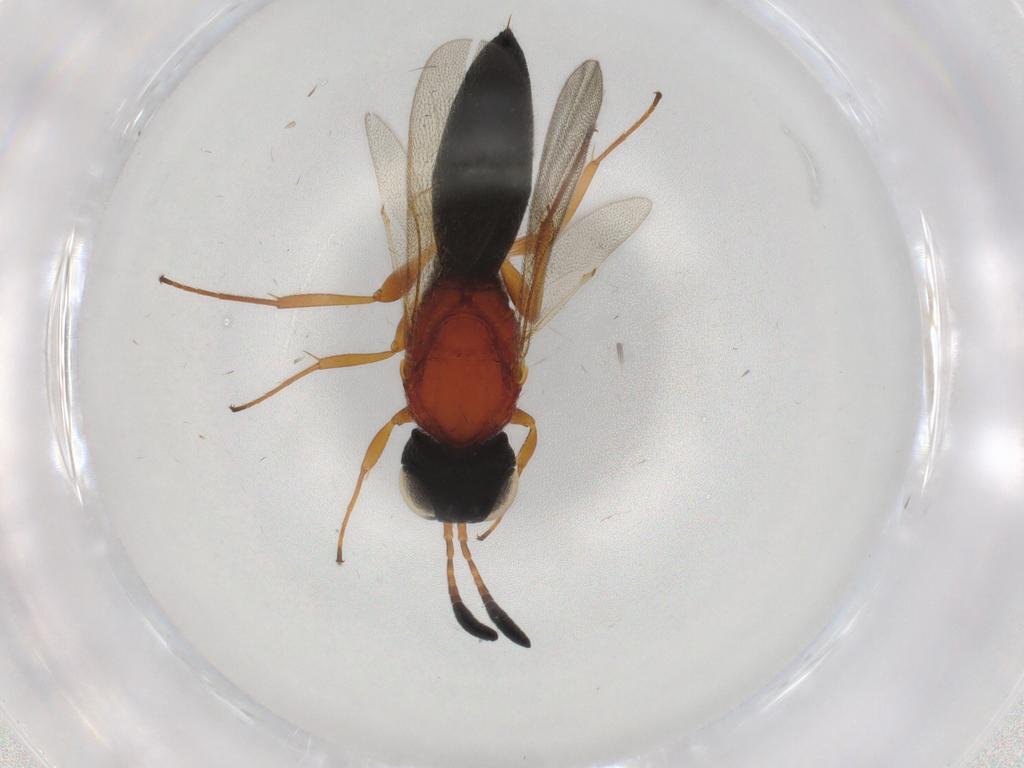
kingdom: Animalia
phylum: Arthropoda
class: Insecta
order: Hymenoptera
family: Scelionidae
